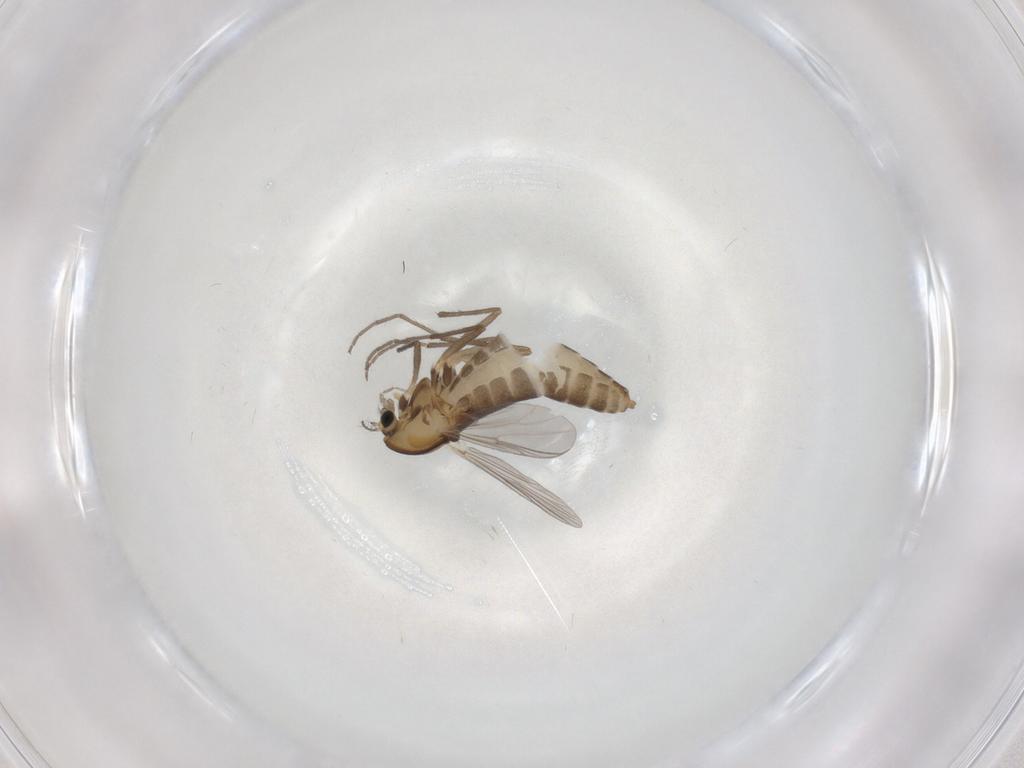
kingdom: Animalia
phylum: Arthropoda
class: Insecta
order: Diptera
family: Chironomidae
